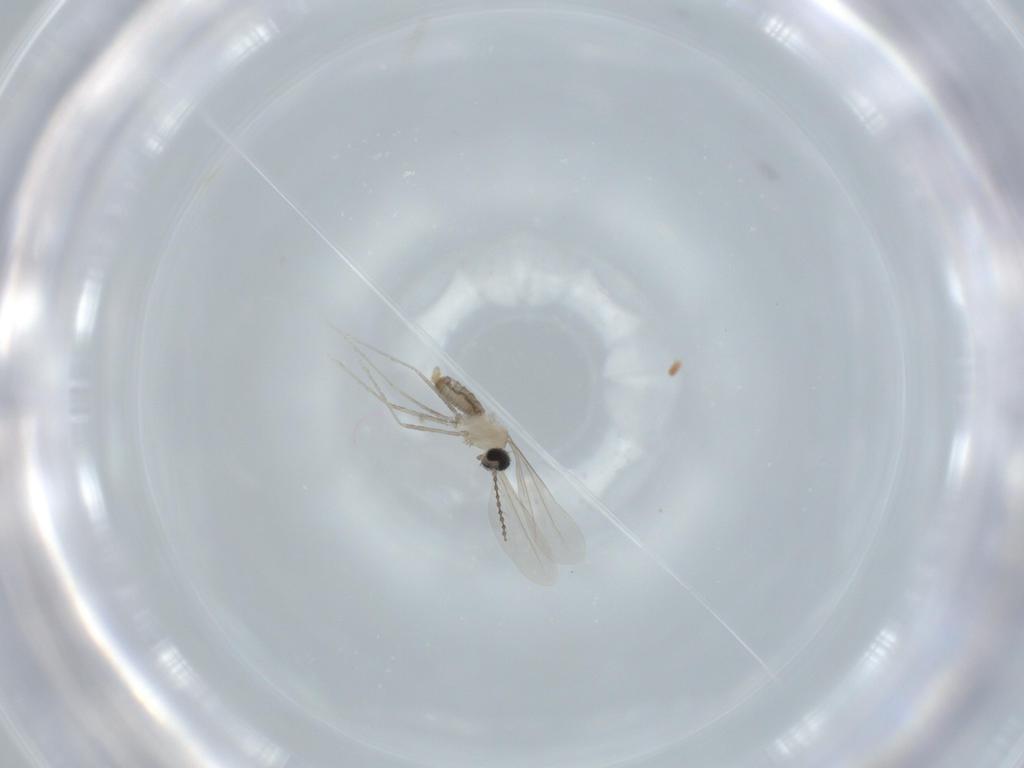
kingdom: Animalia
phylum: Arthropoda
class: Insecta
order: Diptera
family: Cecidomyiidae
